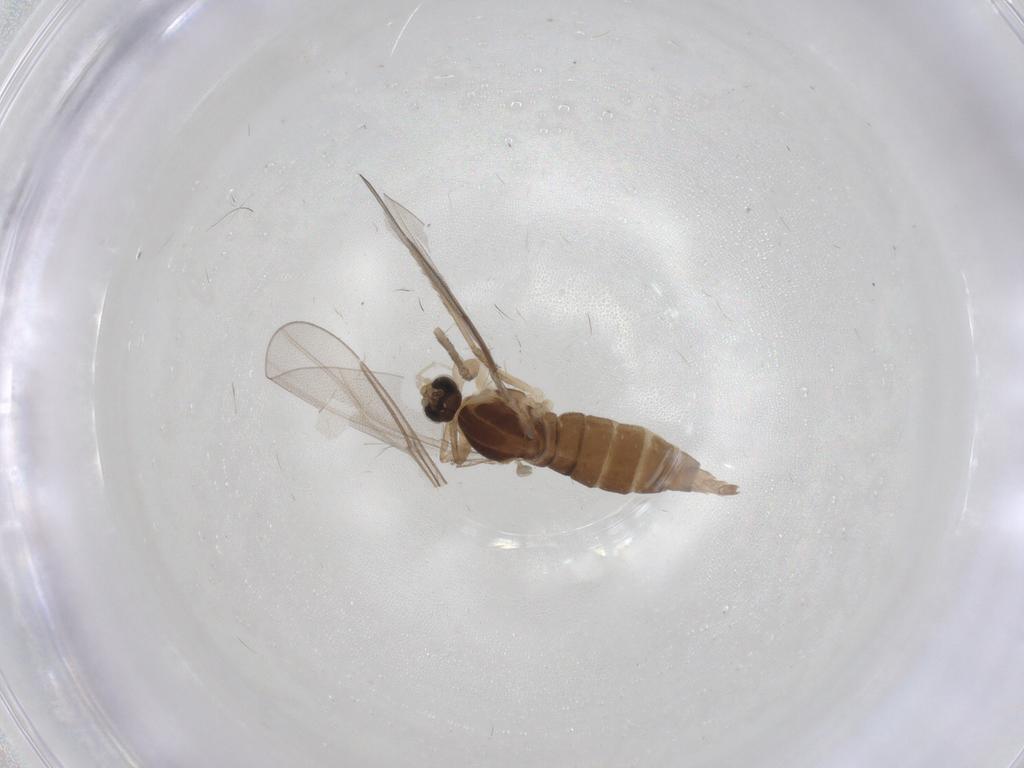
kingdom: Animalia
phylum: Arthropoda
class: Insecta
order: Diptera
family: Cecidomyiidae
